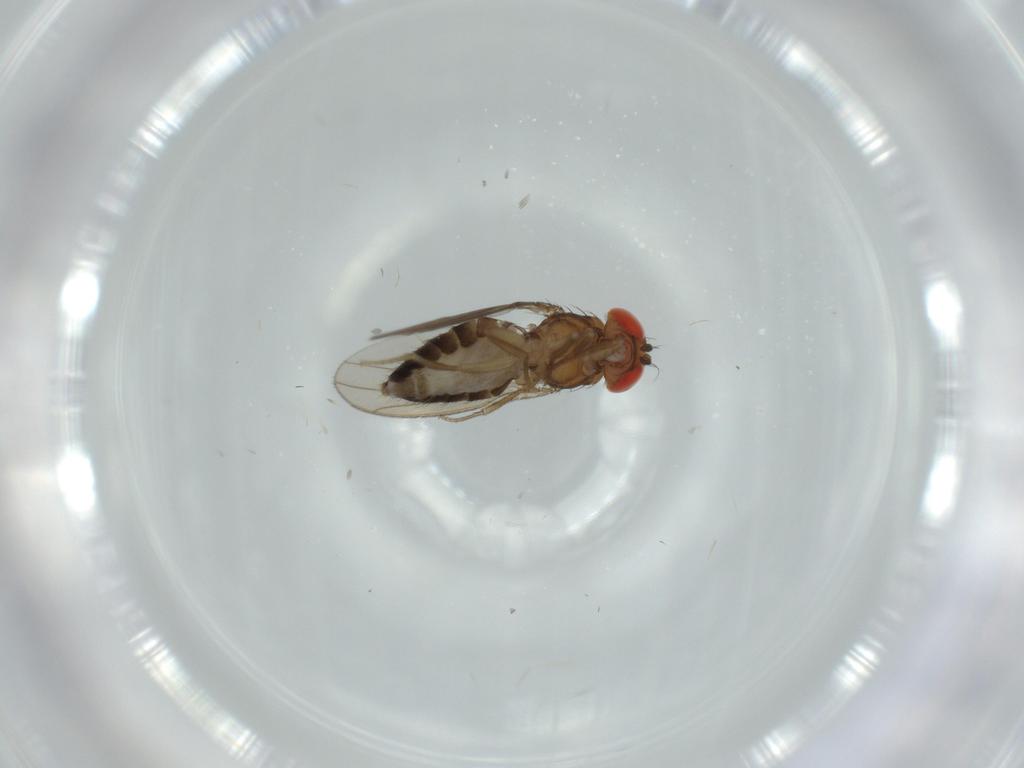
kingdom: Animalia
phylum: Arthropoda
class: Insecta
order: Diptera
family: Drosophilidae
